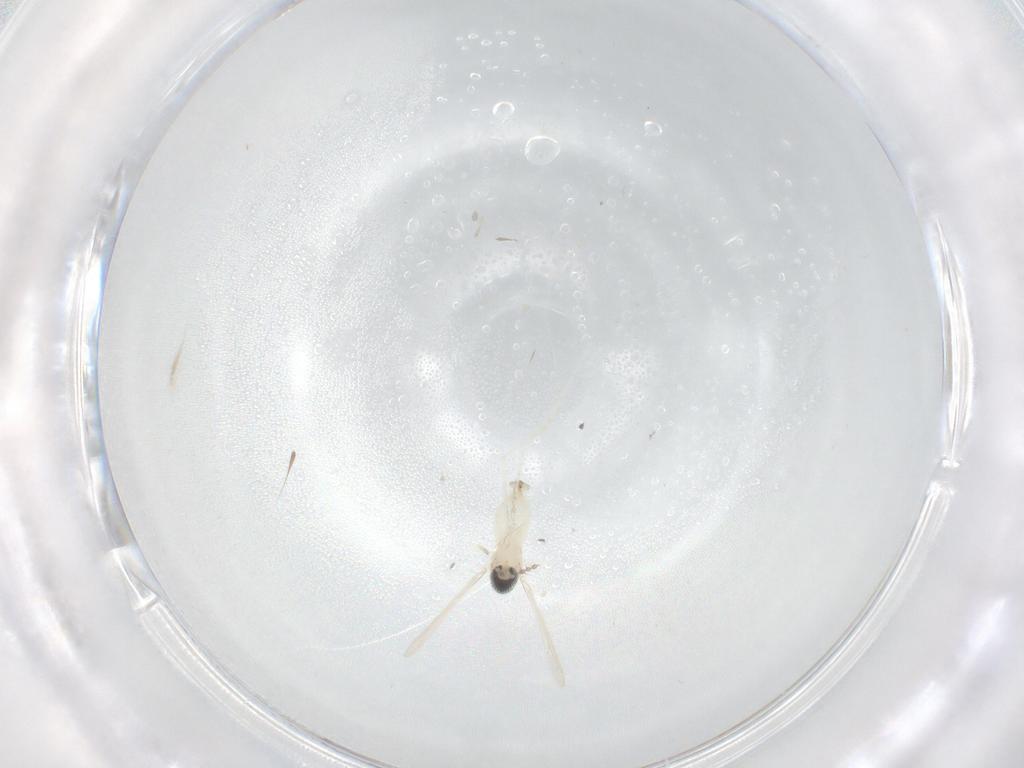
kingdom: Animalia
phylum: Arthropoda
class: Insecta
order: Diptera
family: Cecidomyiidae
